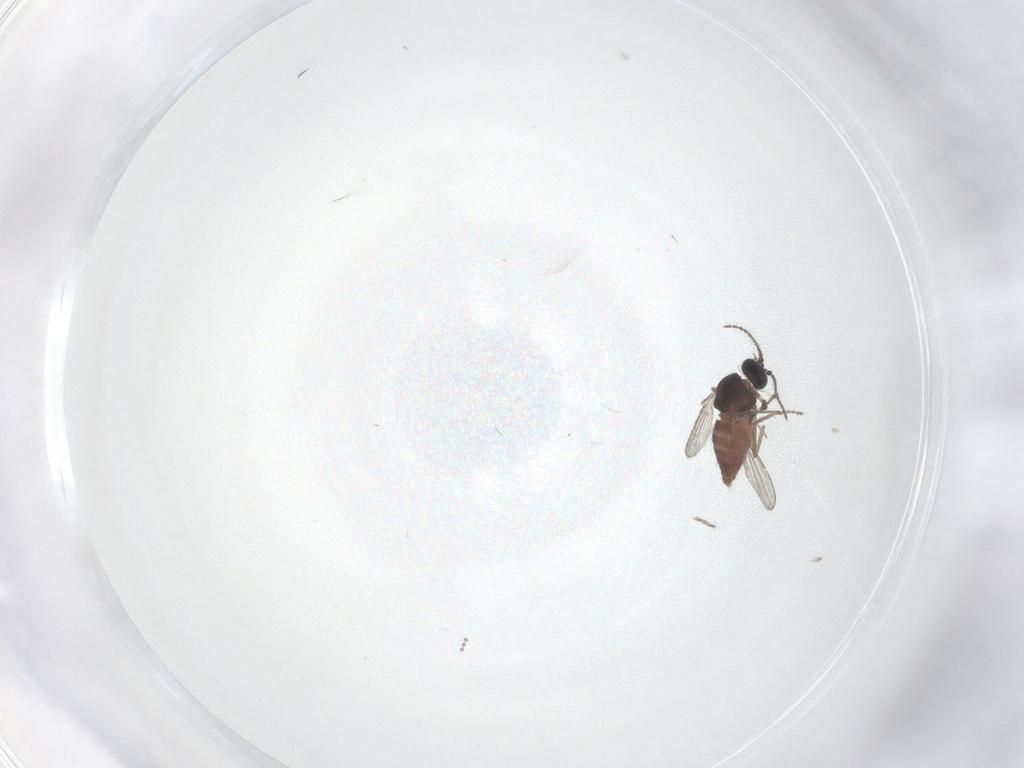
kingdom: Animalia
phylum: Arthropoda
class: Insecta
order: Diptera
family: Ceratopogonidae
